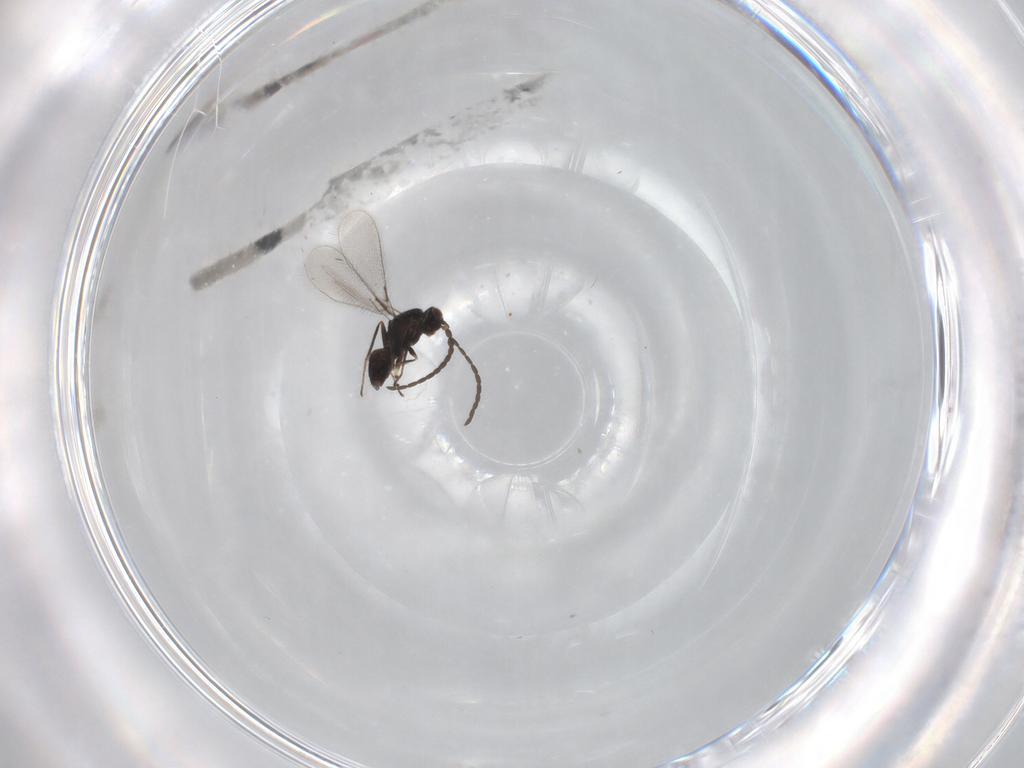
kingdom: Animalia
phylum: Arthropoda
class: Insecta
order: Hymenoptera
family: Mymaridae
